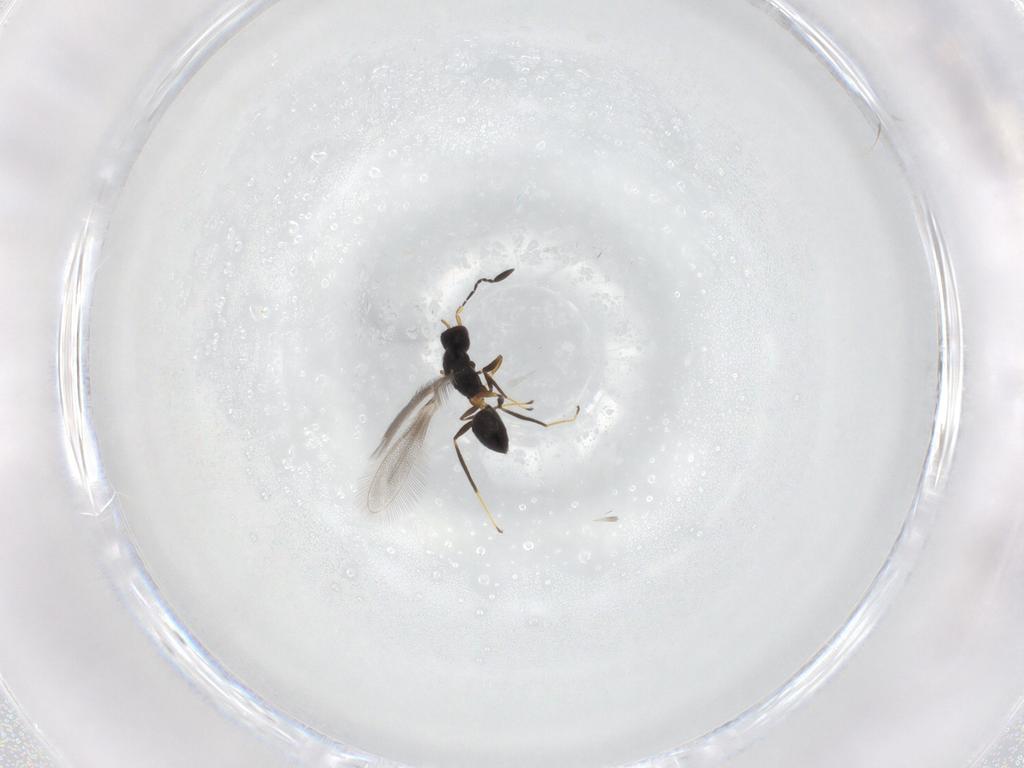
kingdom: Animalia
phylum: Arthropoda
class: Insecta
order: Hymenoptera
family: Mymaridae
